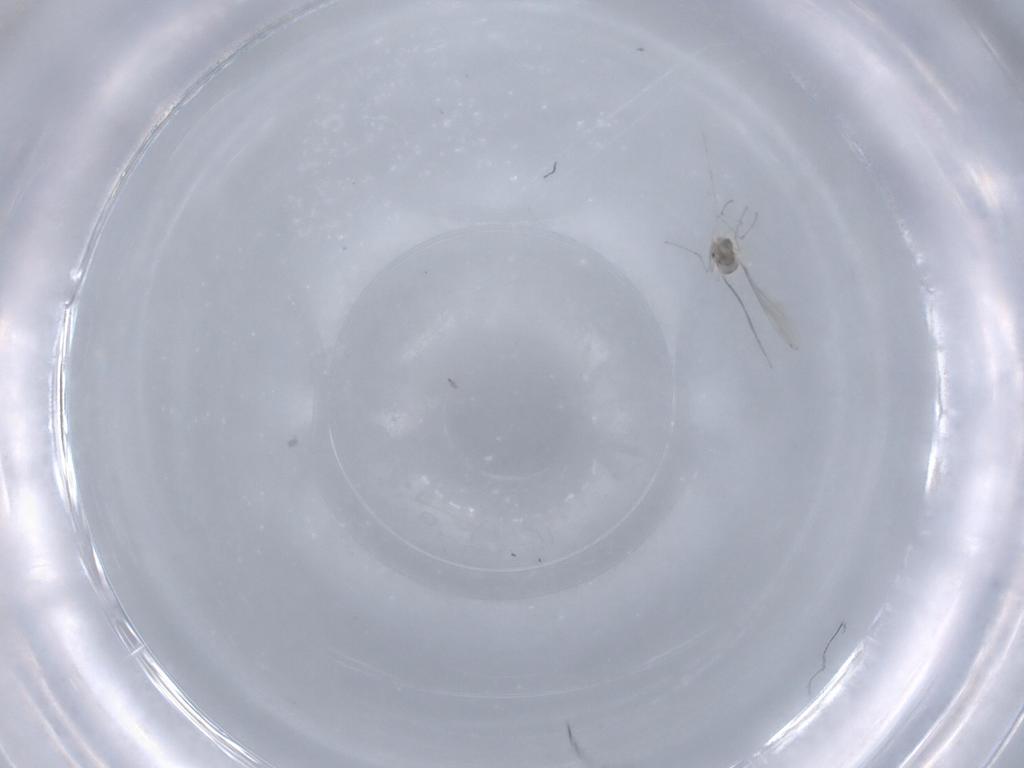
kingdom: Animalia
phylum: Arthropoda
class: Insecta
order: Diptera
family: Cecidomyiidae
